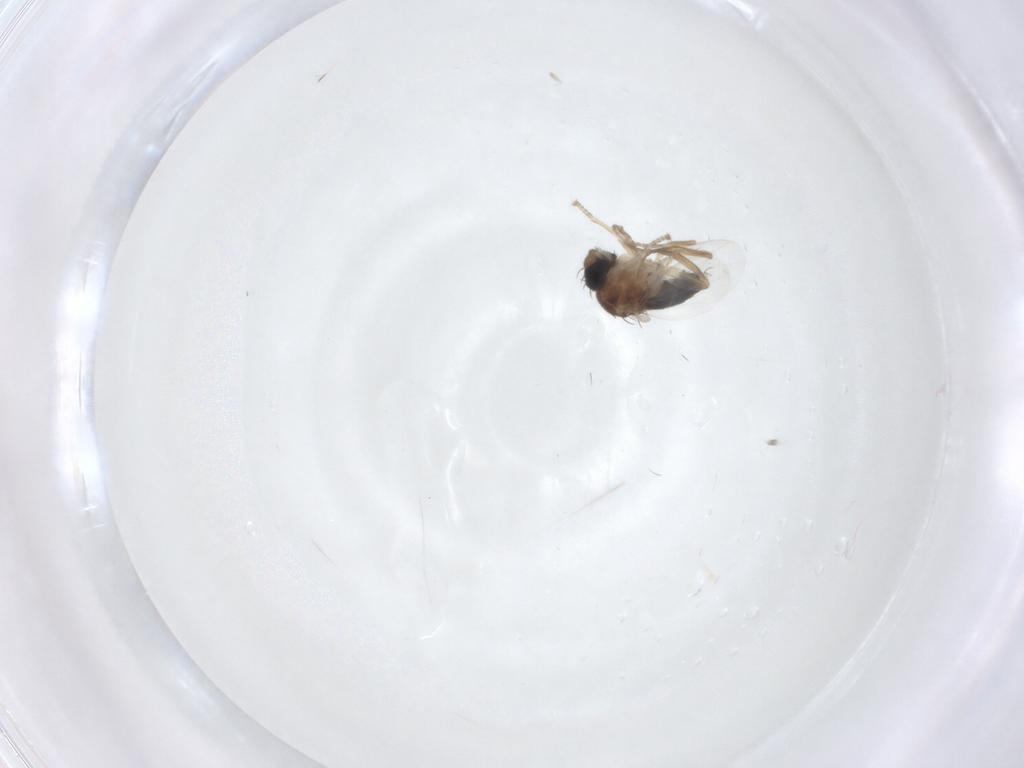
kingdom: Animalia
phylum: Arthropoda
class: Insecta
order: Diptera
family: Phoridae
